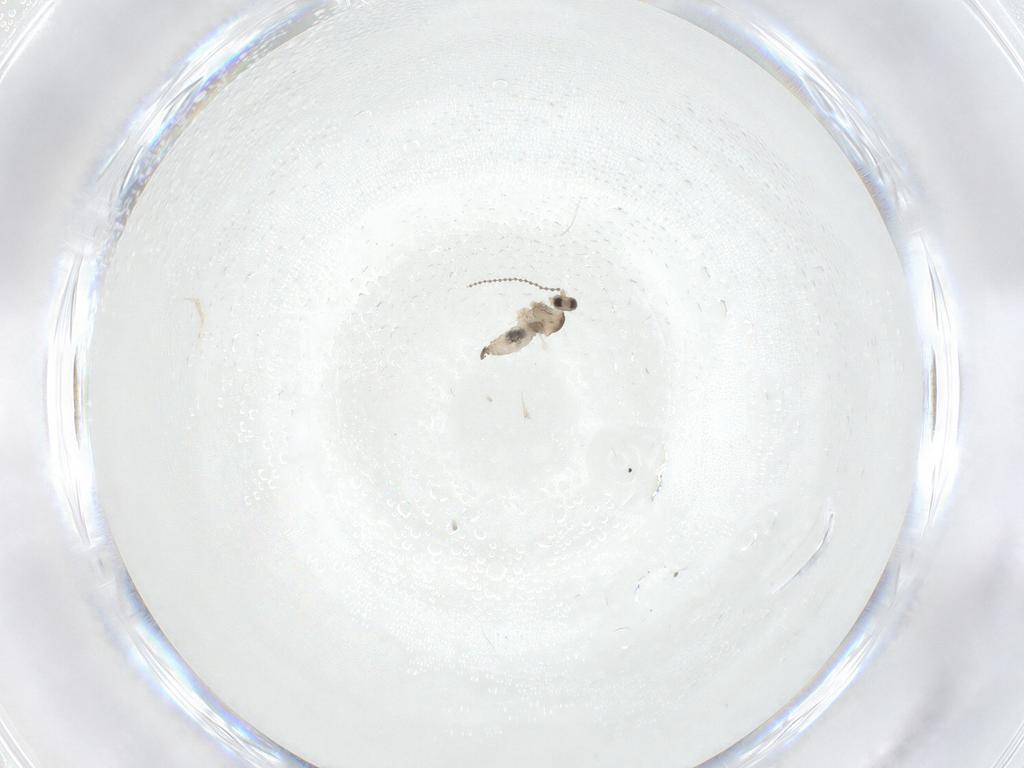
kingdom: Animalia
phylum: Arthropoda
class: Insecta
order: Diptera
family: Cecidomyiidae
